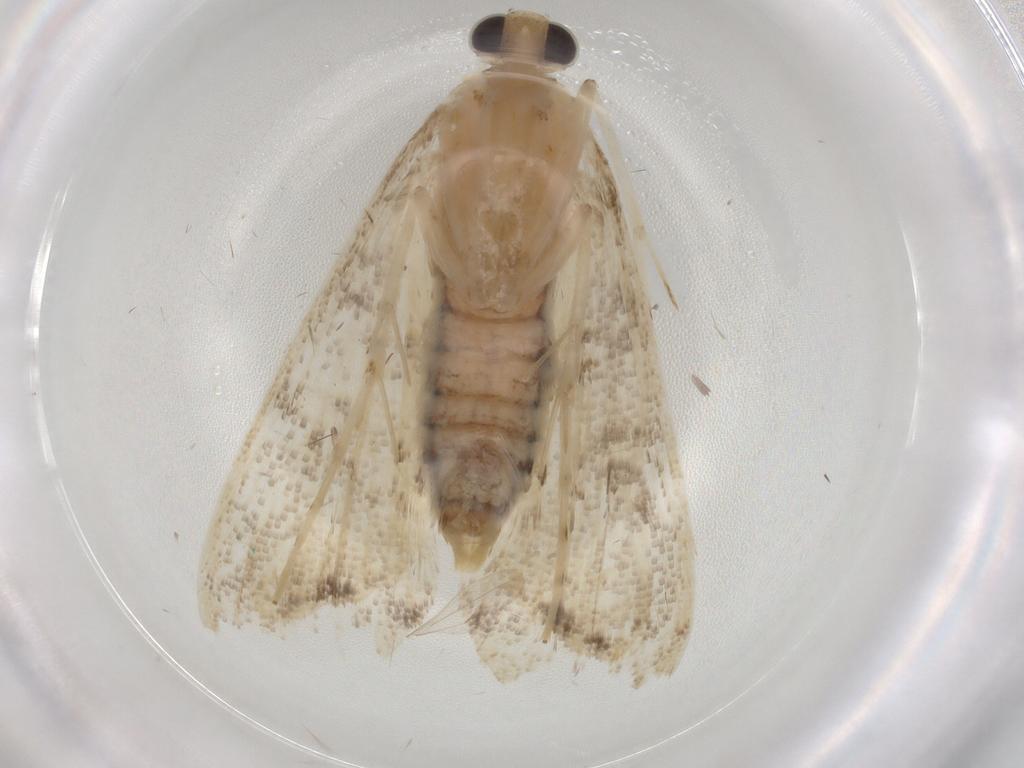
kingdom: Animalia
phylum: Arthropoda
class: Insecta
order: Lepidoptera
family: Crambidae
